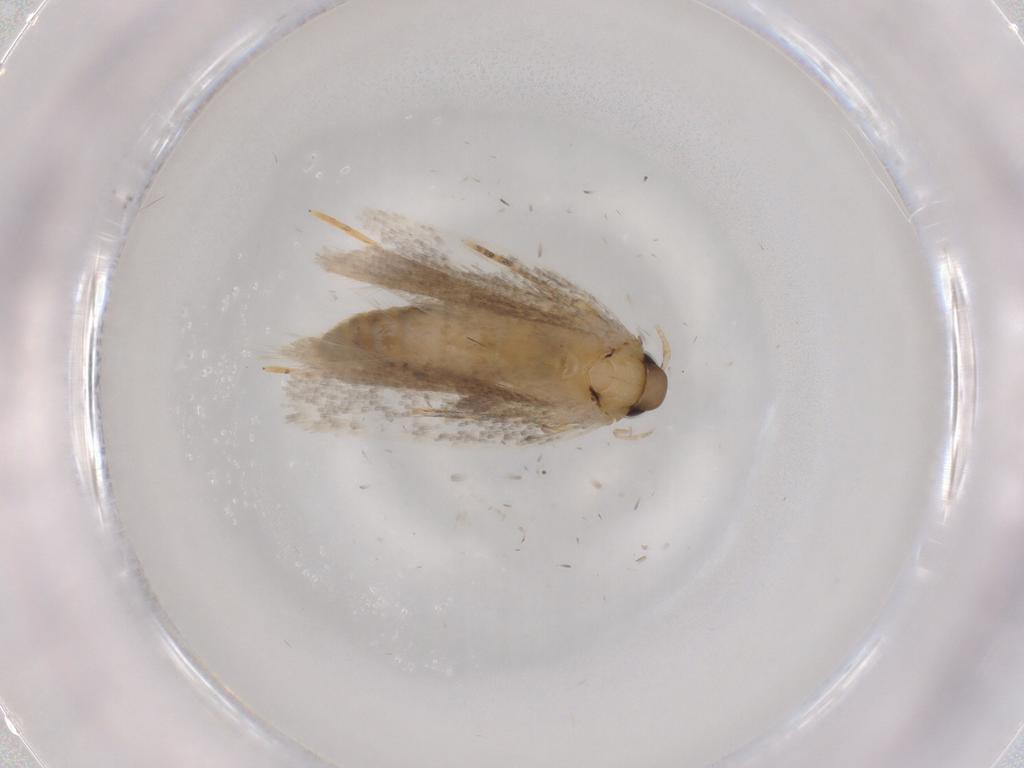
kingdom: Animalia
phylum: Arthropoda
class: Insecta
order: Lepidoptera
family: Autostichidae
